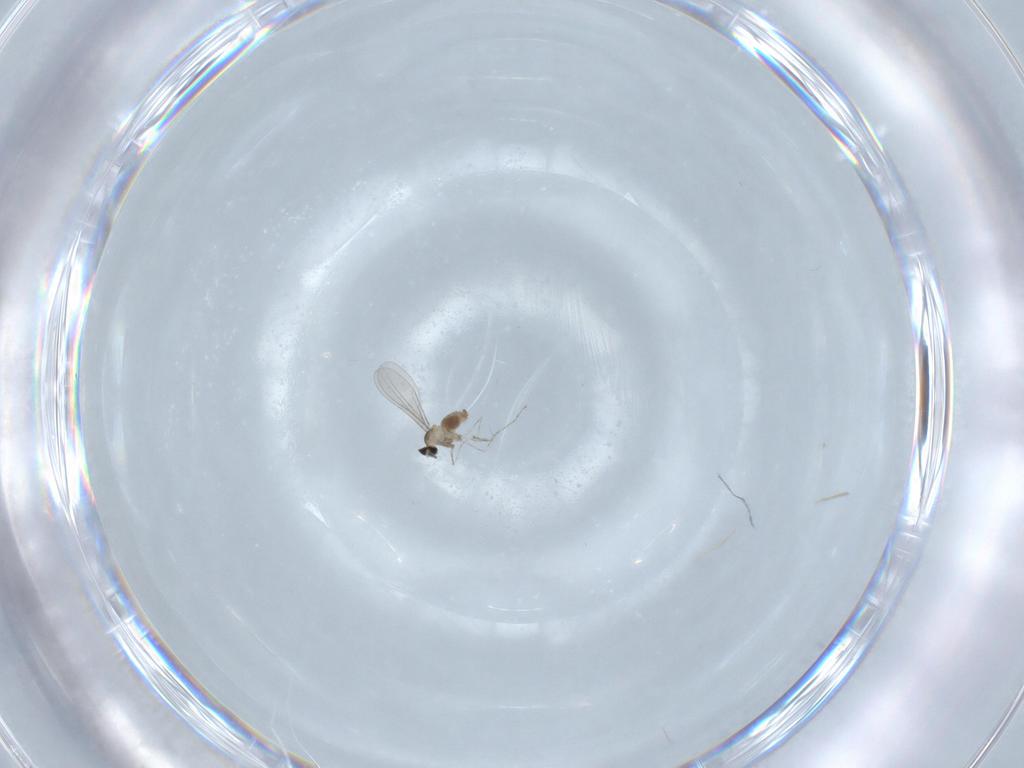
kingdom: Animalia
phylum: Arthropoda
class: Insecta
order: Diptera
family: Cecidomyiidae
